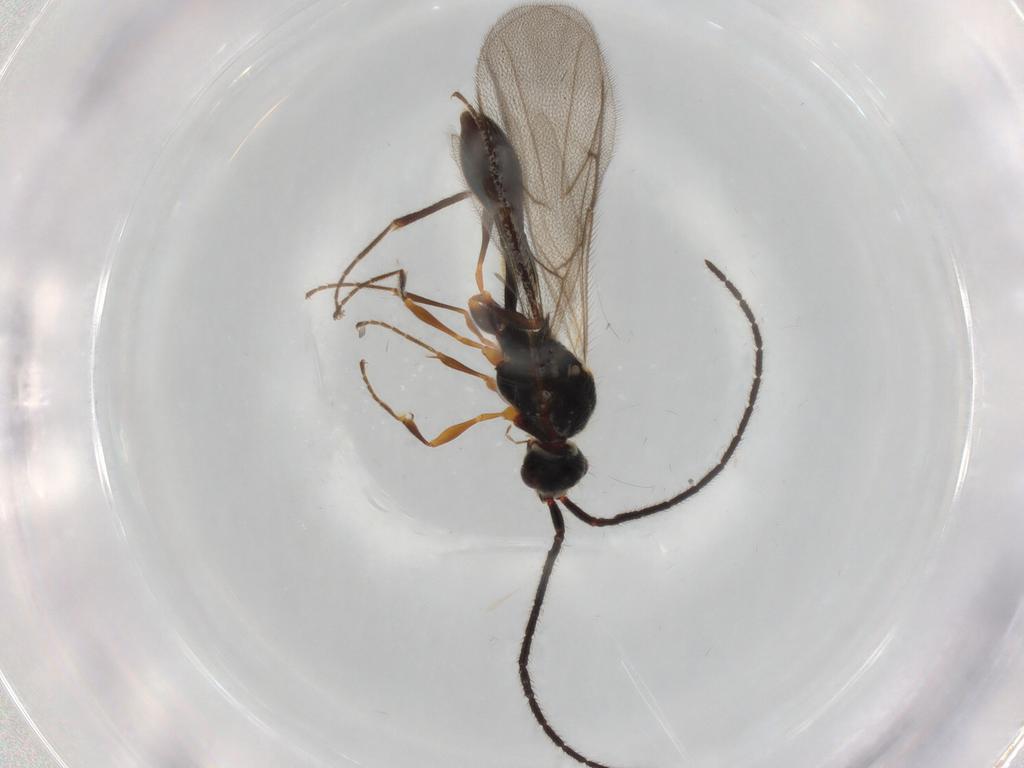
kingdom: Animalia
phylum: Arthropoda
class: Insecta
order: Hymenoptera
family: Diapriidae
